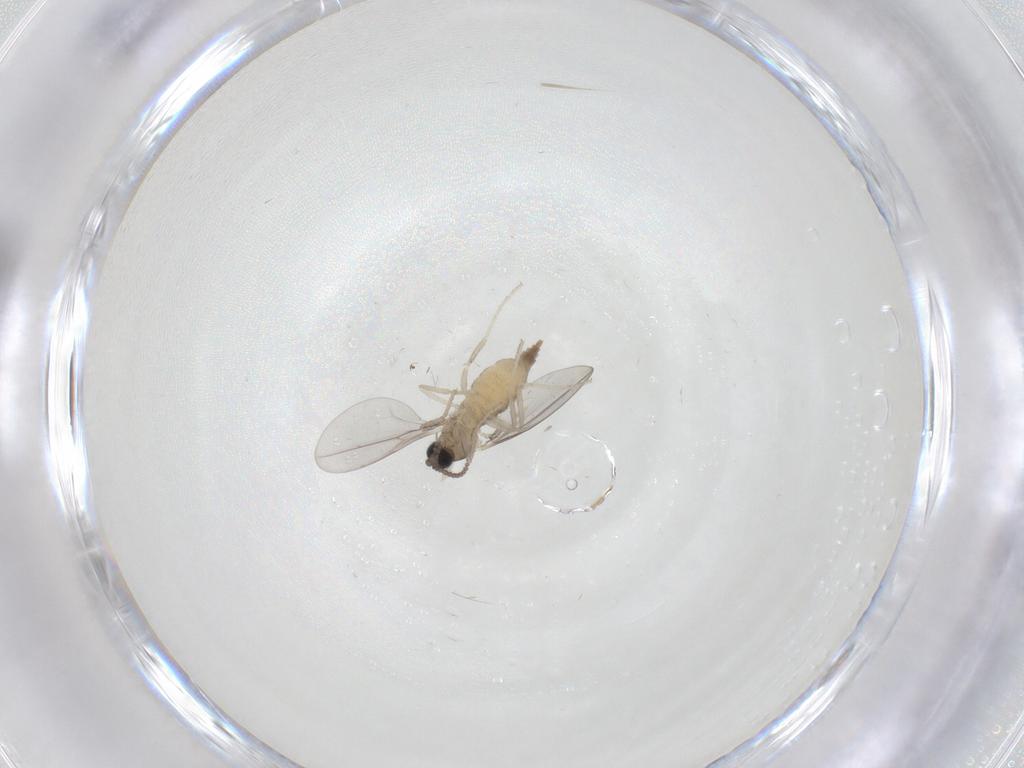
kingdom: Animalia
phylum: Arthropoda
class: Insecta
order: Diptera
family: Cecidomyiidae
